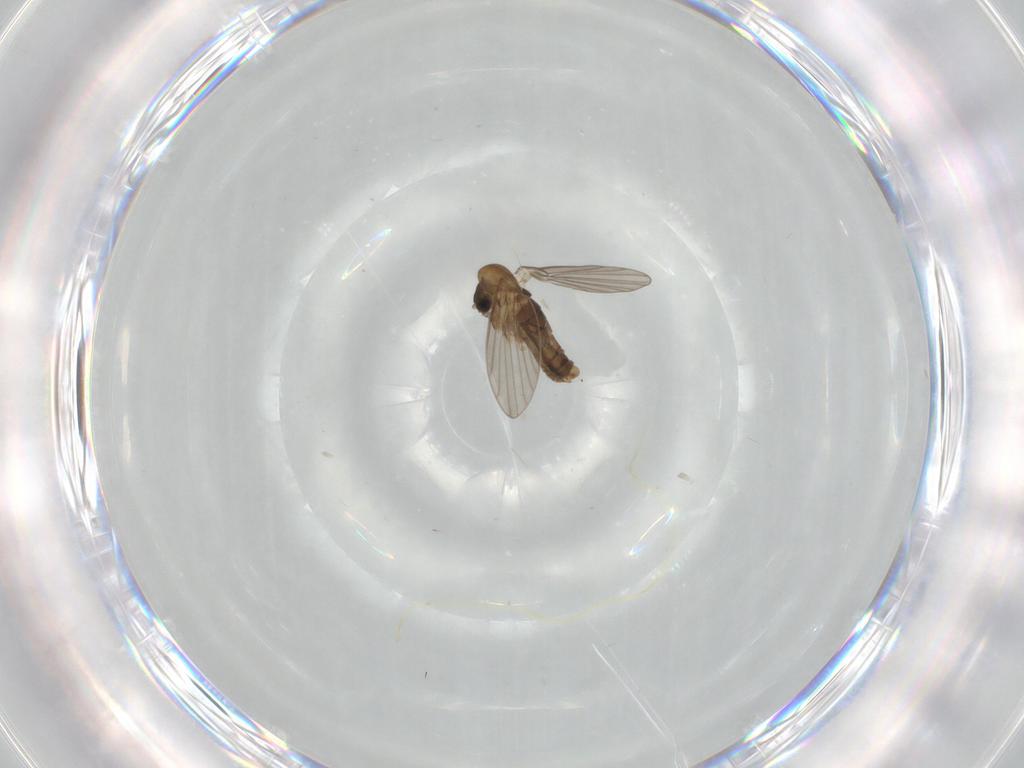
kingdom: Animalia
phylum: Arthropoda
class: Insecta
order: Diptera
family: Psychodidae
